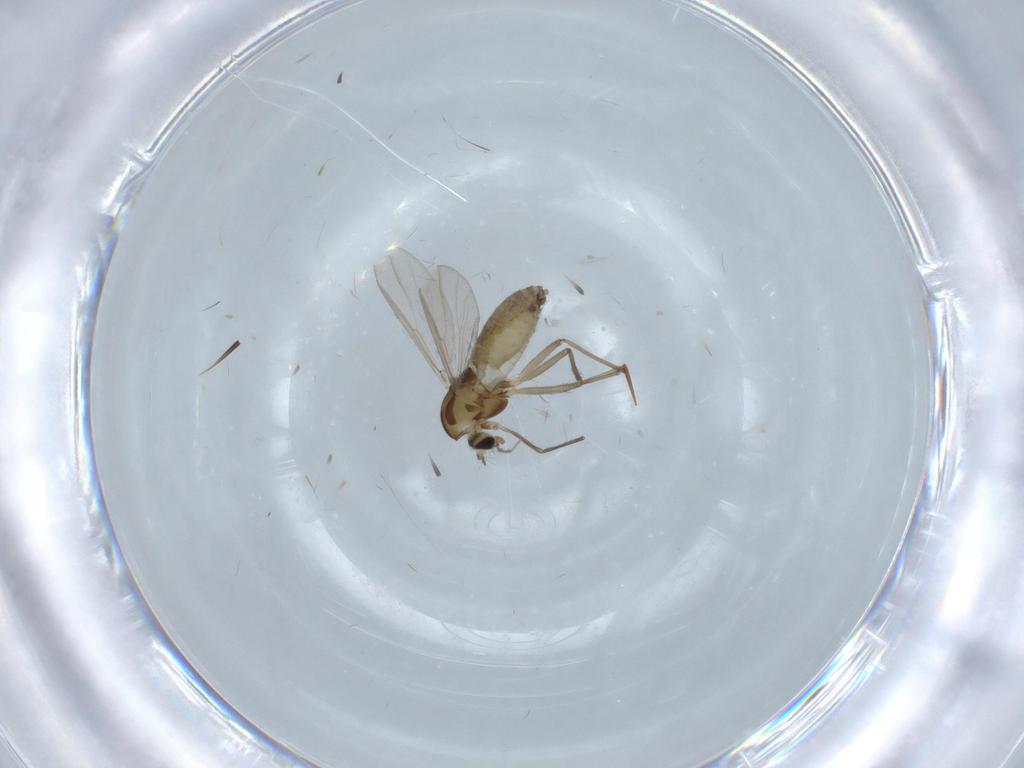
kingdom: Animalia
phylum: Arthropoda
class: Insecta
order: Diptera
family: Chironomidae
